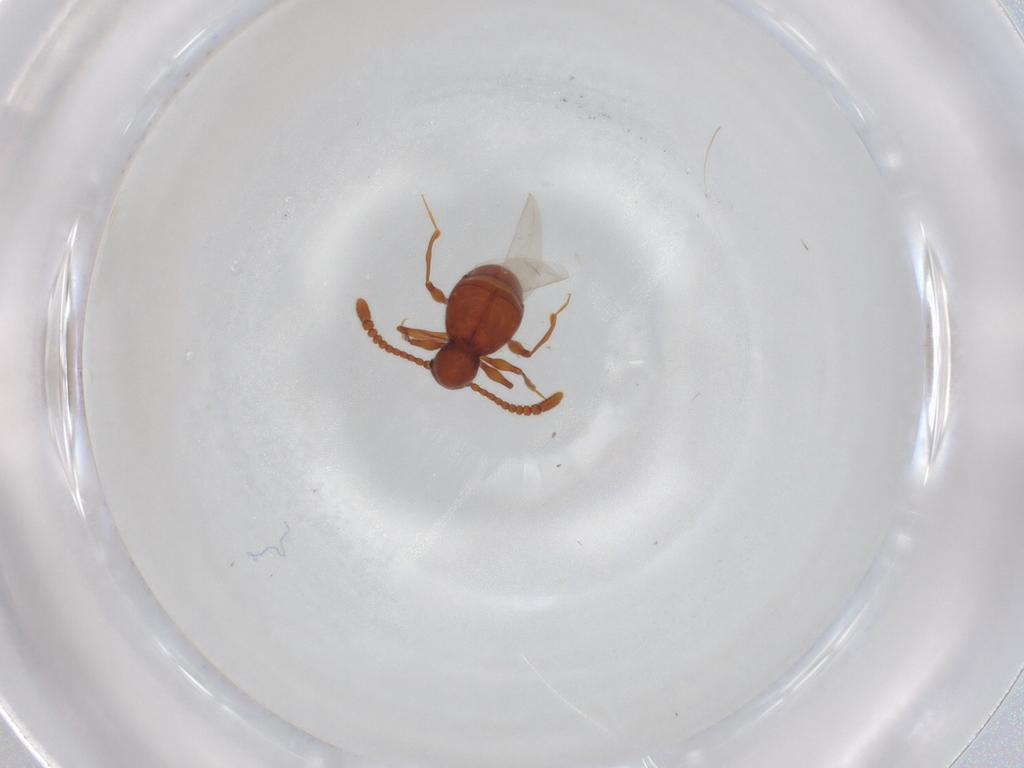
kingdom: Animalia
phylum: Arthropoda
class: Insecta
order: Coleoptera
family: Staphylinidae
